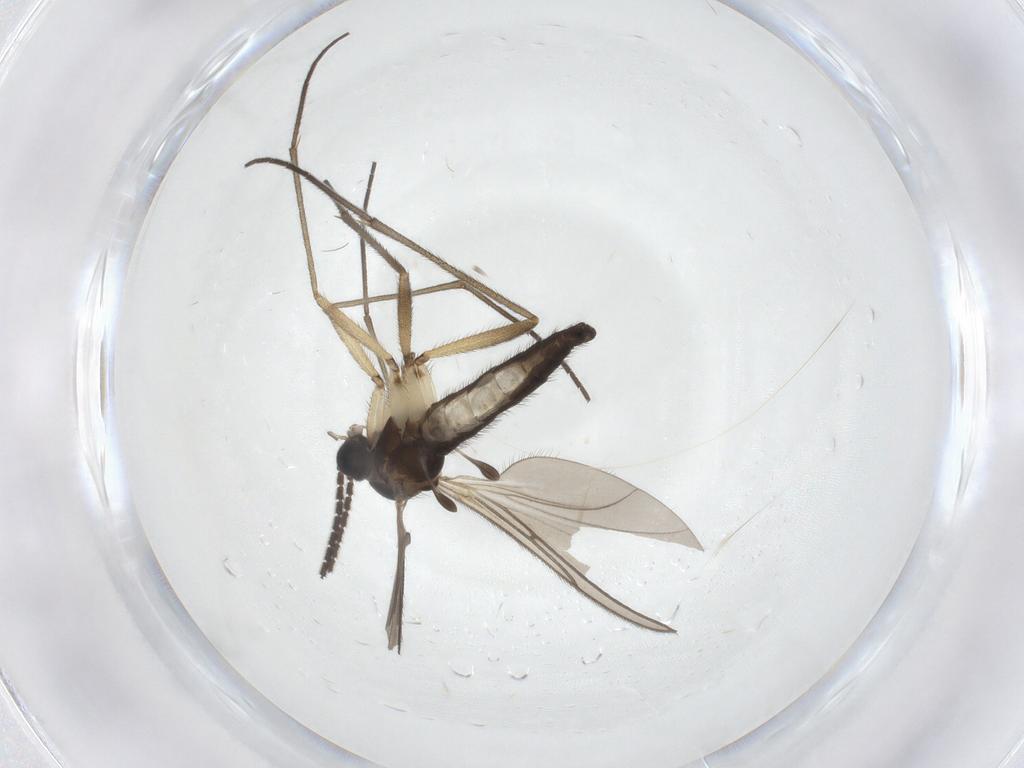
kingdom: Animalia
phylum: Arthropoda
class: Insecta
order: Diptera
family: Sciaridae
